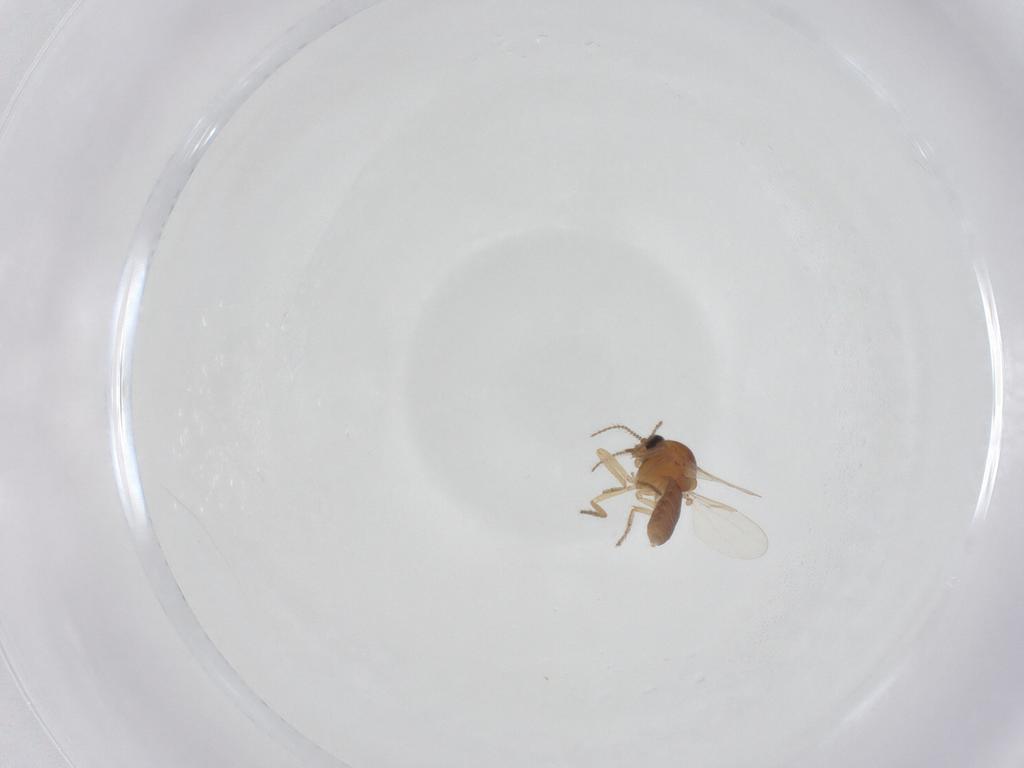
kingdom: Animalia
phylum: Arthropoda
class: Insecta
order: Diptera
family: Ceratopogonidae
